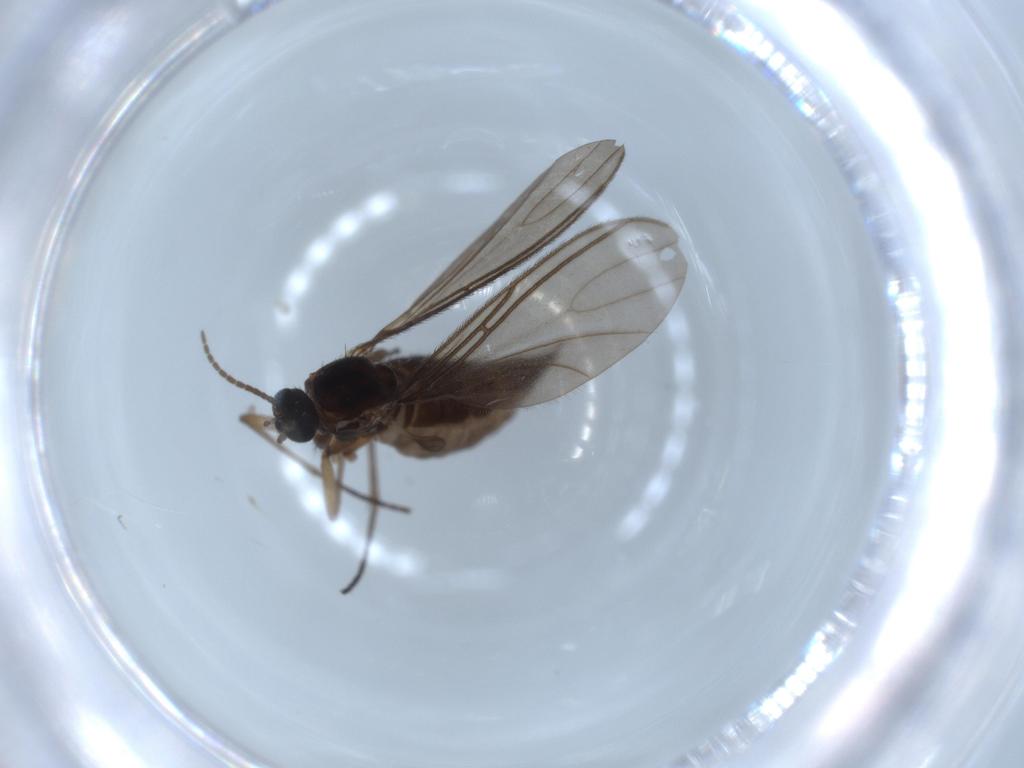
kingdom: Animalia
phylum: Arthropoda
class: Insecta
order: Diptera
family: Sciaridae
